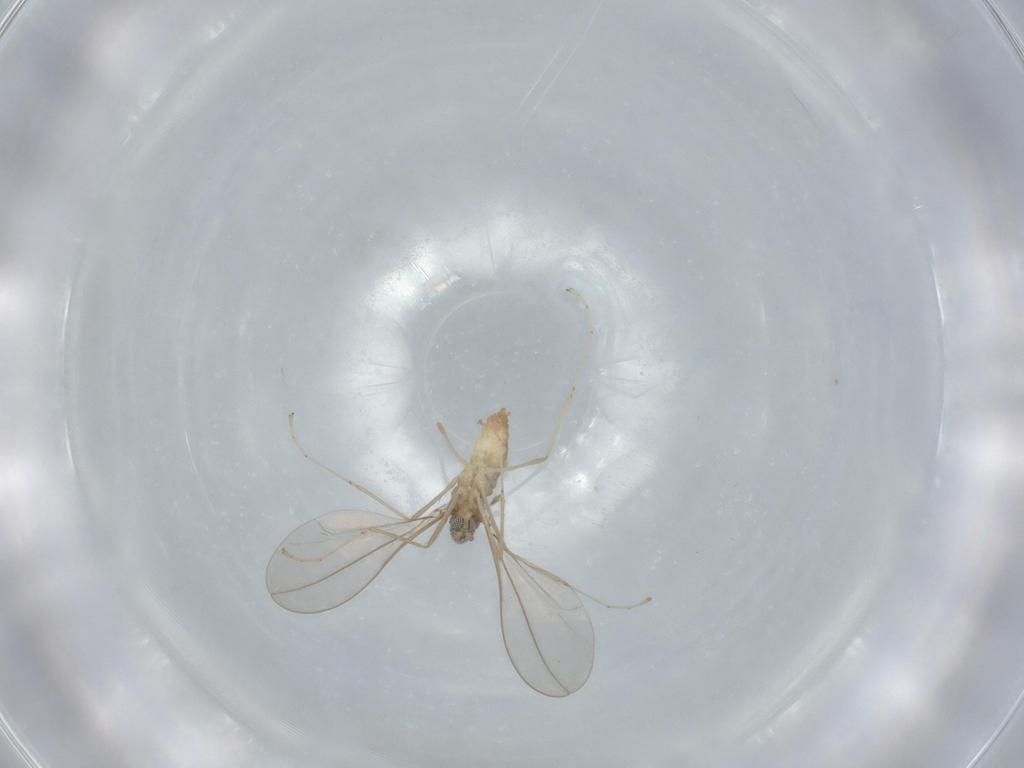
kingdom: Animalia
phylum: Arthropoda
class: Insecta
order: Diptera
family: Cecidomyiidae
